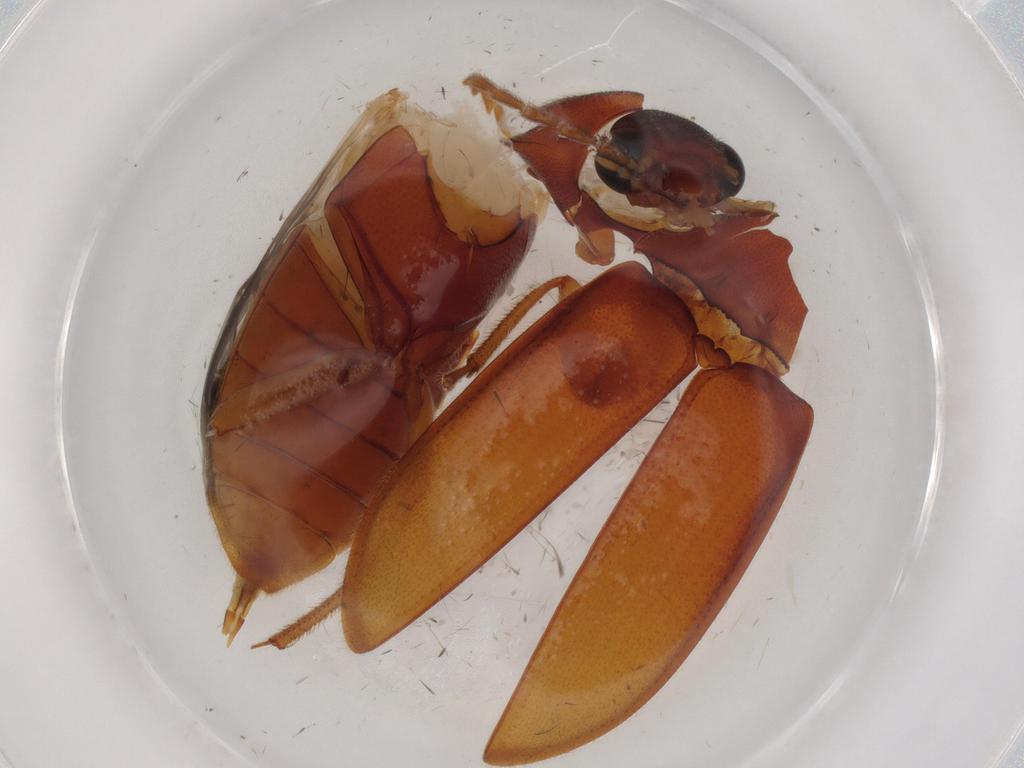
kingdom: Animalia
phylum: Arthropoda
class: Insecta
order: Coleoptera
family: Ptilodactylidae
